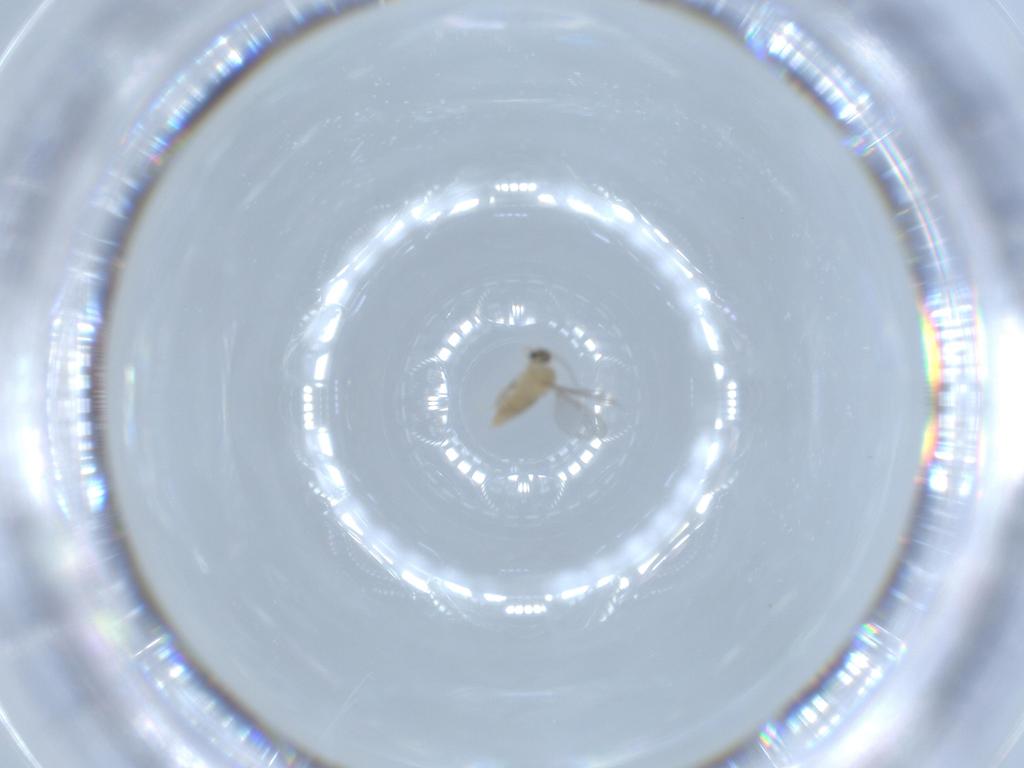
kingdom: Animalia
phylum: Arthropoda
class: Insecta
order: Diptera
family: Cecidomyiidae
